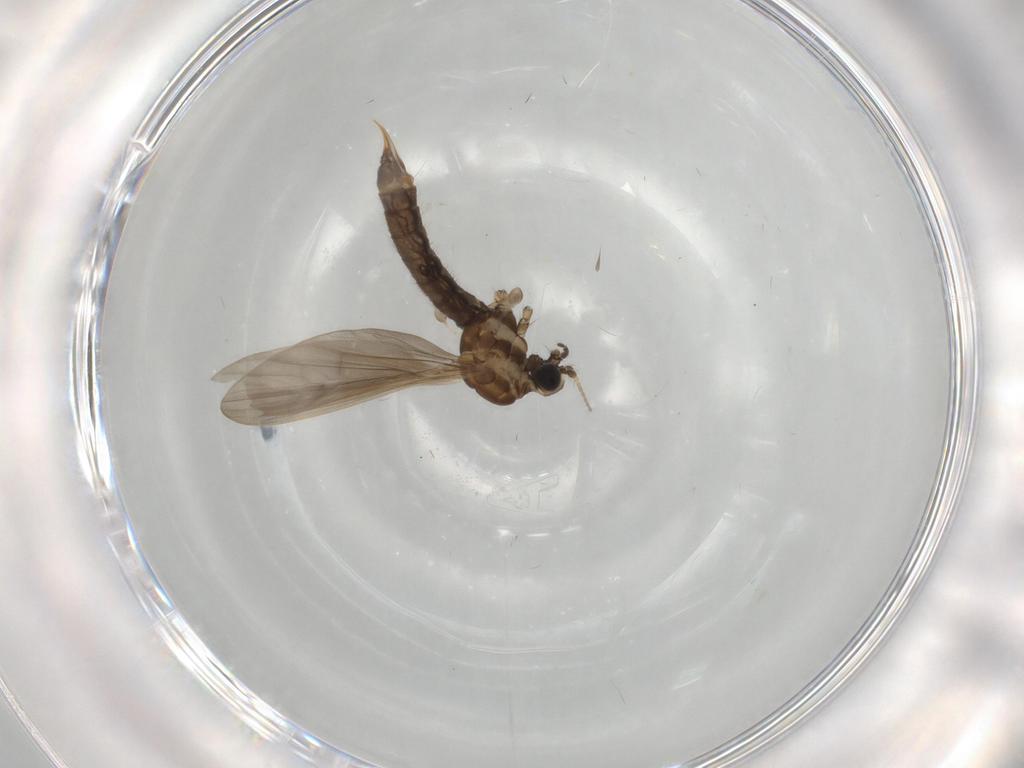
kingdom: Animalia
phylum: Arthropoda
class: Insecta
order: Diptera
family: Limoniidae
